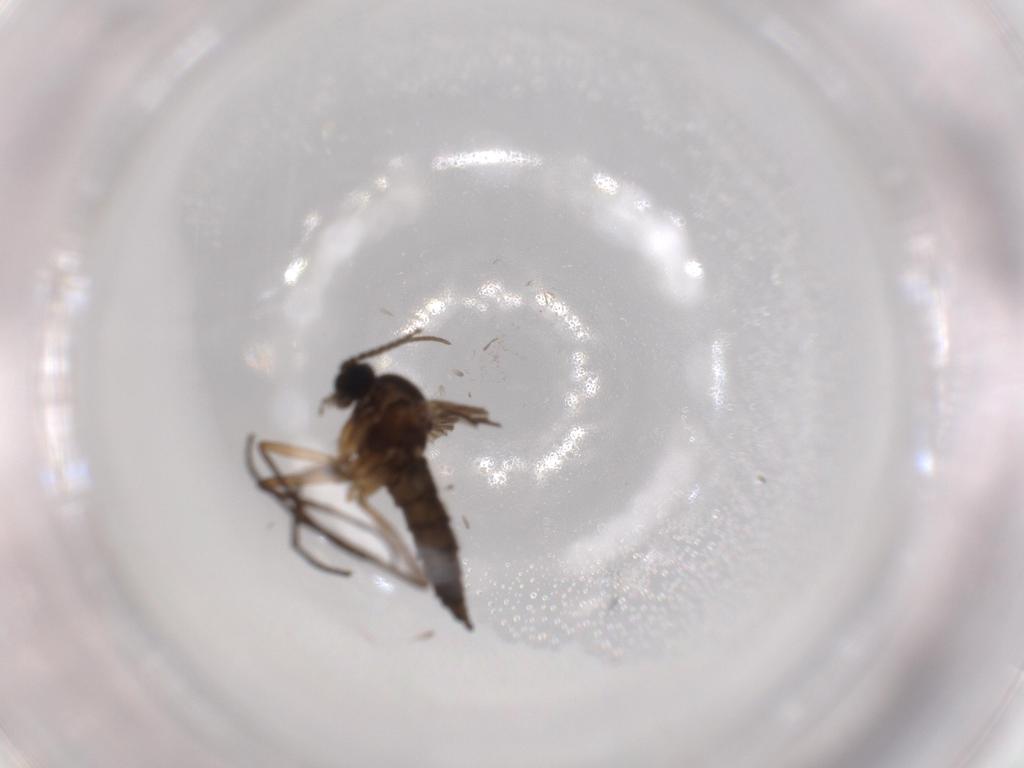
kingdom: Animalia
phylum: Arthropoda
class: Insecta
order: Diptera
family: Sciaridae
